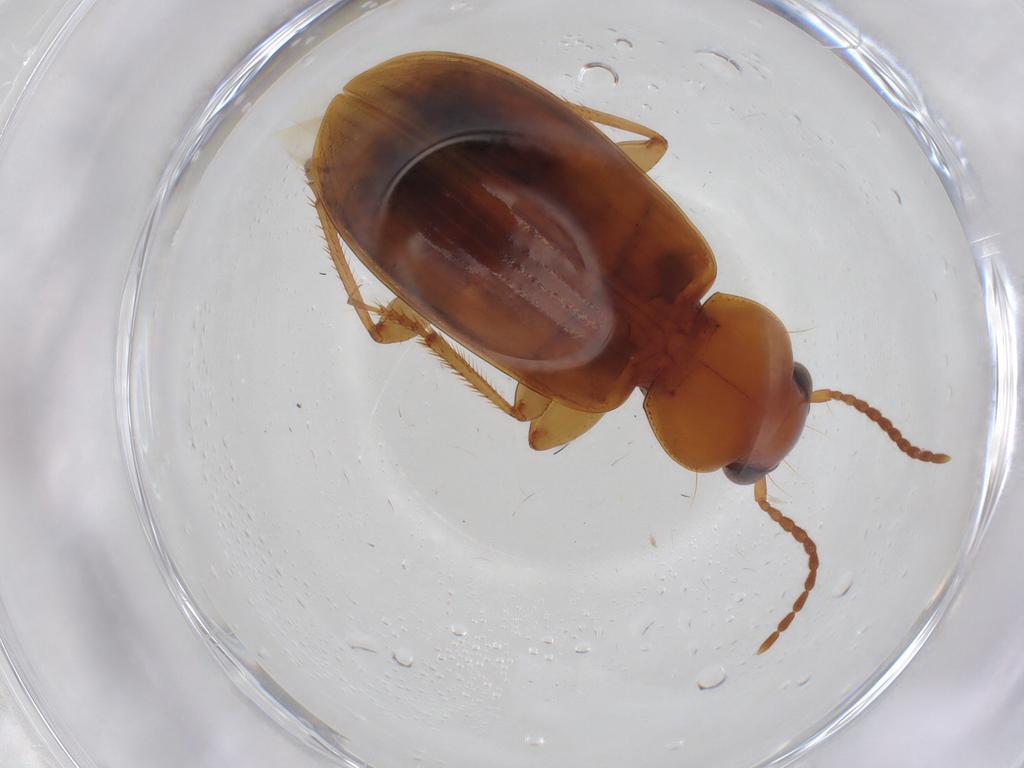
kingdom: Animalia
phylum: Arthropoda
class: Insecta
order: Coleoptera
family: Carabidae
